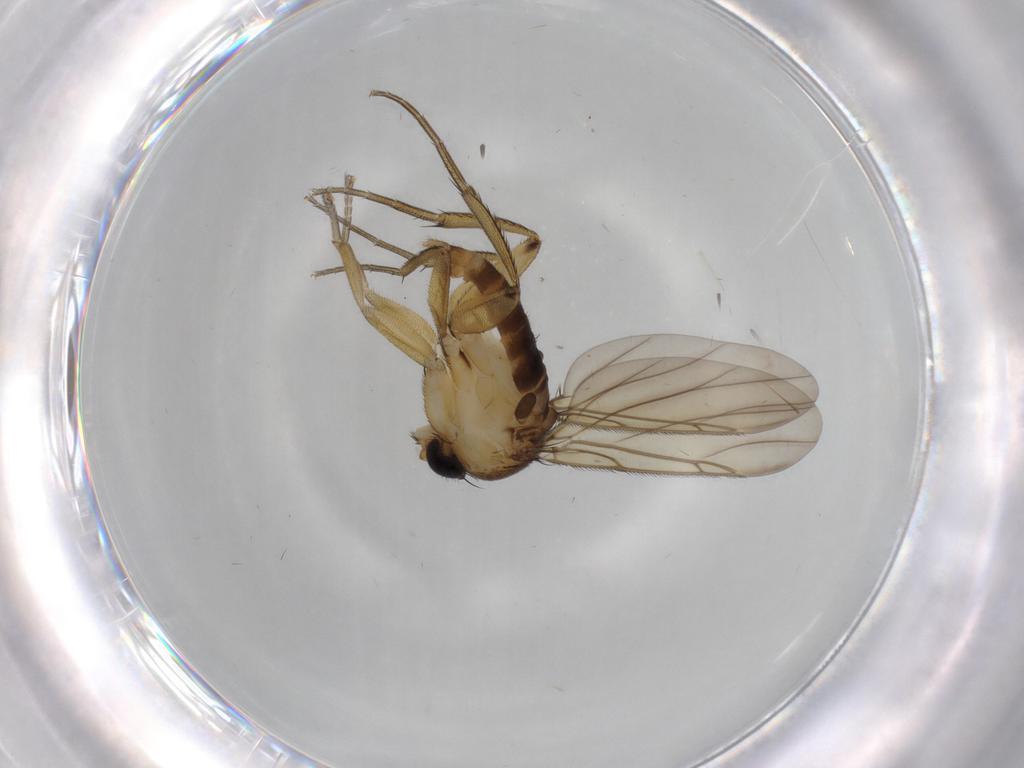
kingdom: Animalia
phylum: Arthropoda
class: Insecta
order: Diptera
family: Phoridae
